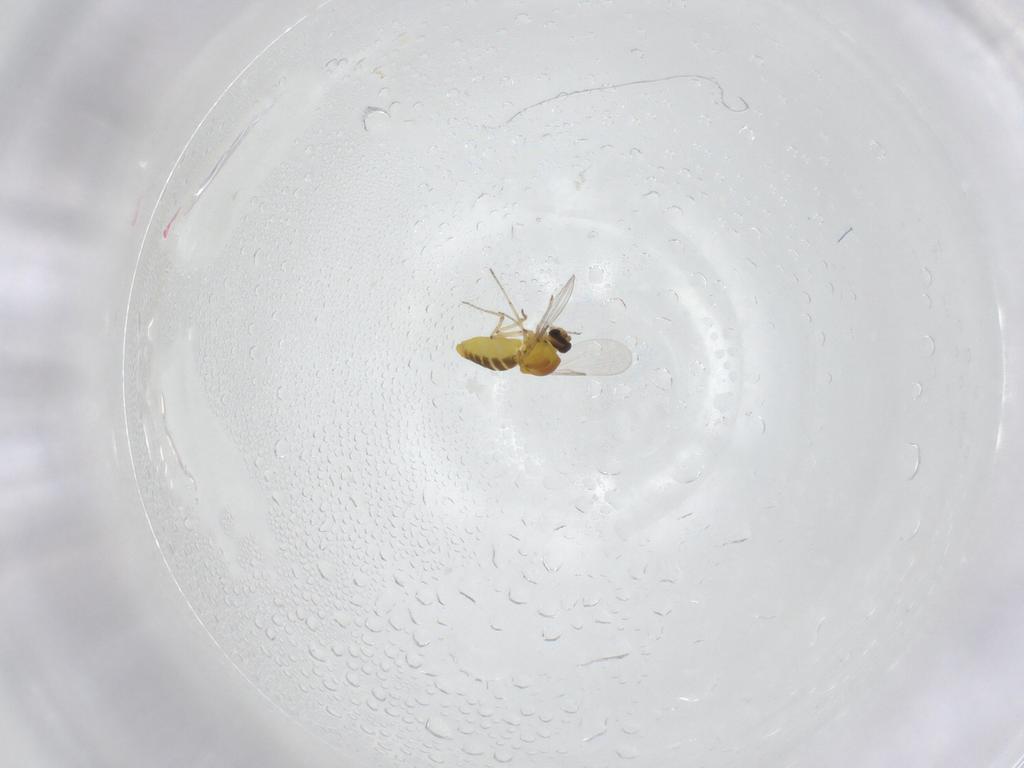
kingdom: Animalia
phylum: Arthropoda
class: Insecta
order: Diptera
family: Ceratopogonidae
